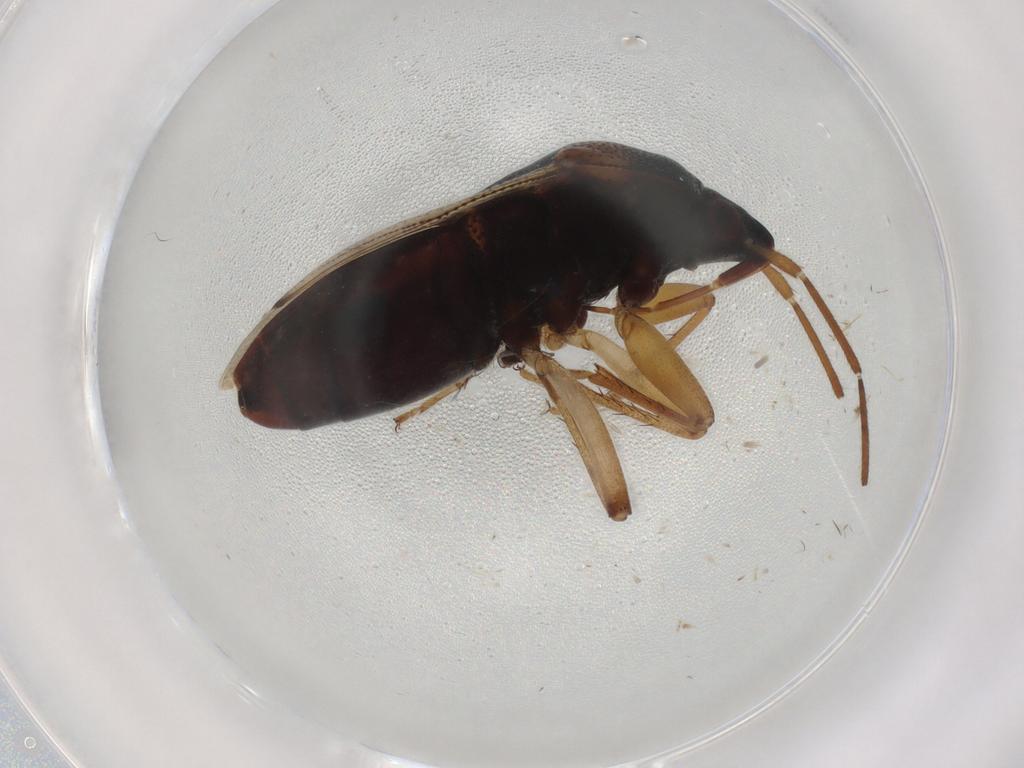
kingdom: Animalia
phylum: Arthropoda
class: Insecta
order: Hemiptera
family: Rhyparochromidae
